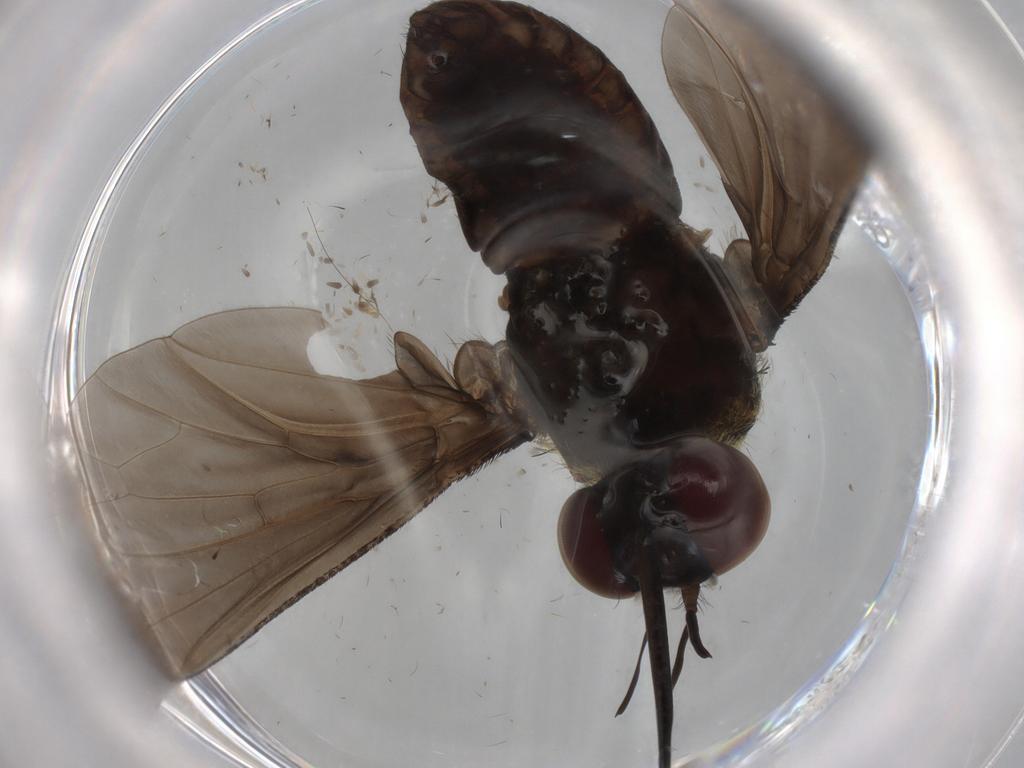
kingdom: Animalia
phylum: Arthropoda
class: Insecta
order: Diptera
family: Bombyliidae
